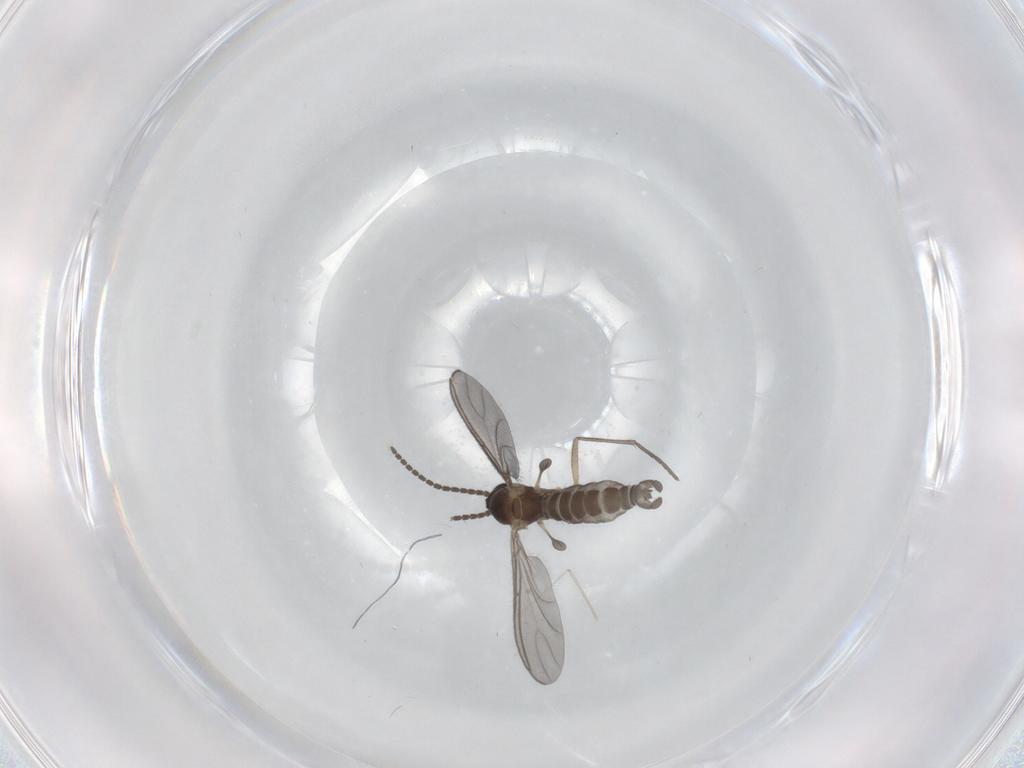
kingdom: Animalia
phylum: Arthropoda
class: Insecta
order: Diptera
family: Sciaridae
